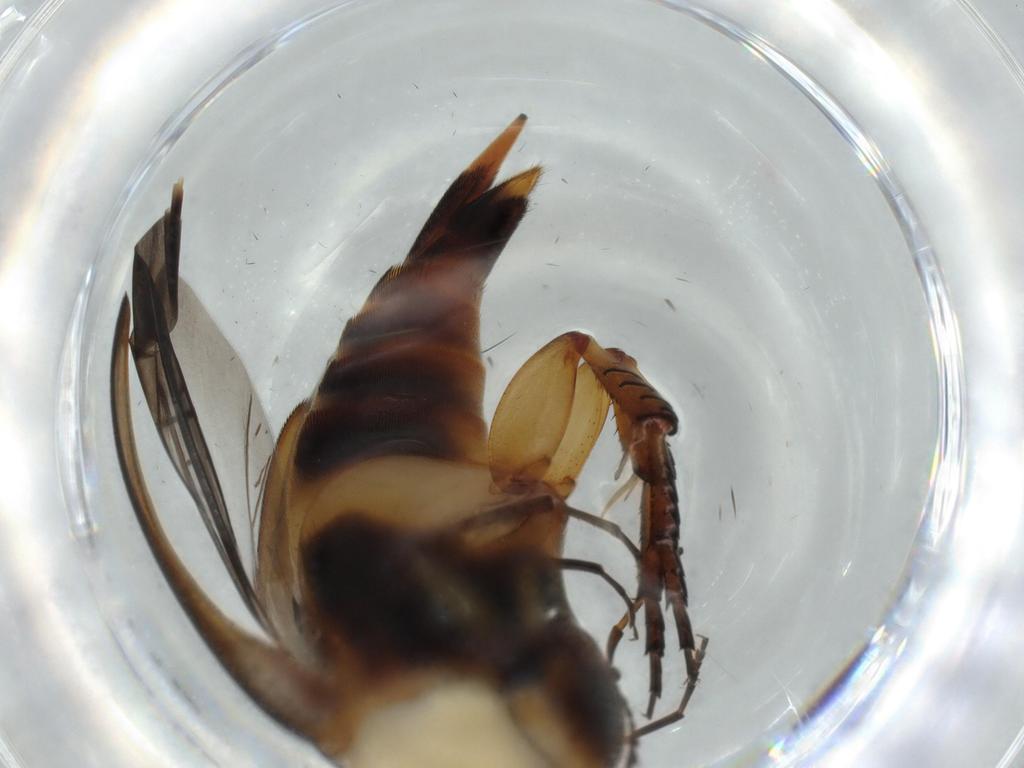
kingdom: Animalia
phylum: Arthropoda
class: Insecta
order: Coleoptera
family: Mordellidae
